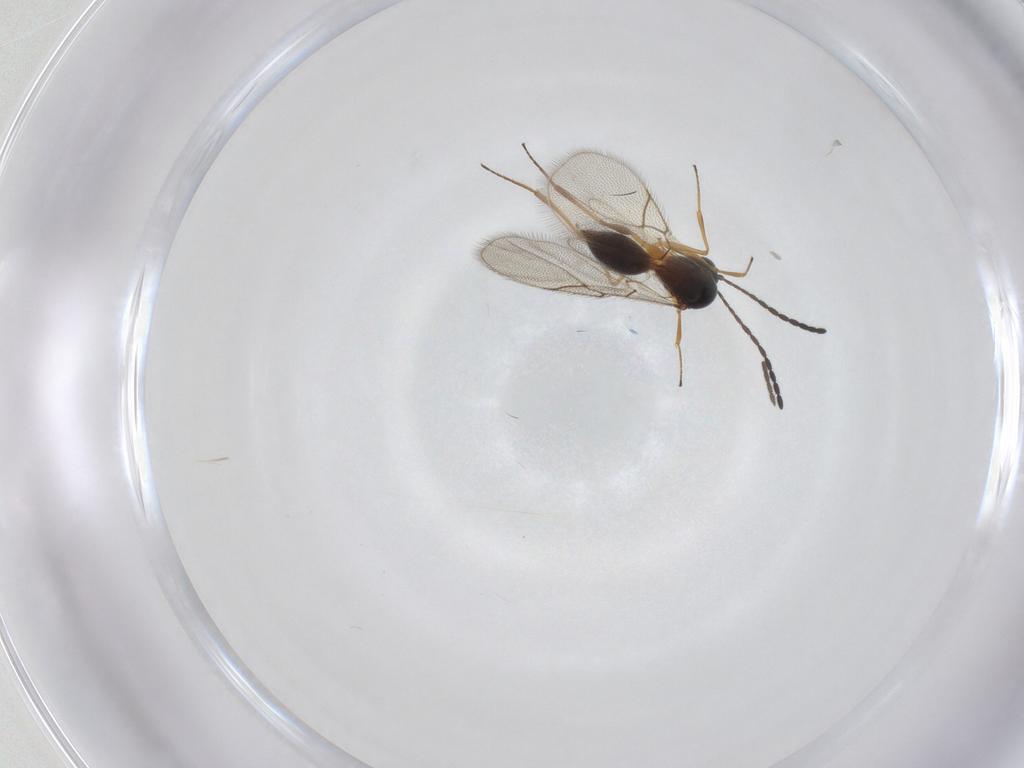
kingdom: Animalia
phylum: Arthropoda
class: Insecta
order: Hymenoptera
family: Figitidae
